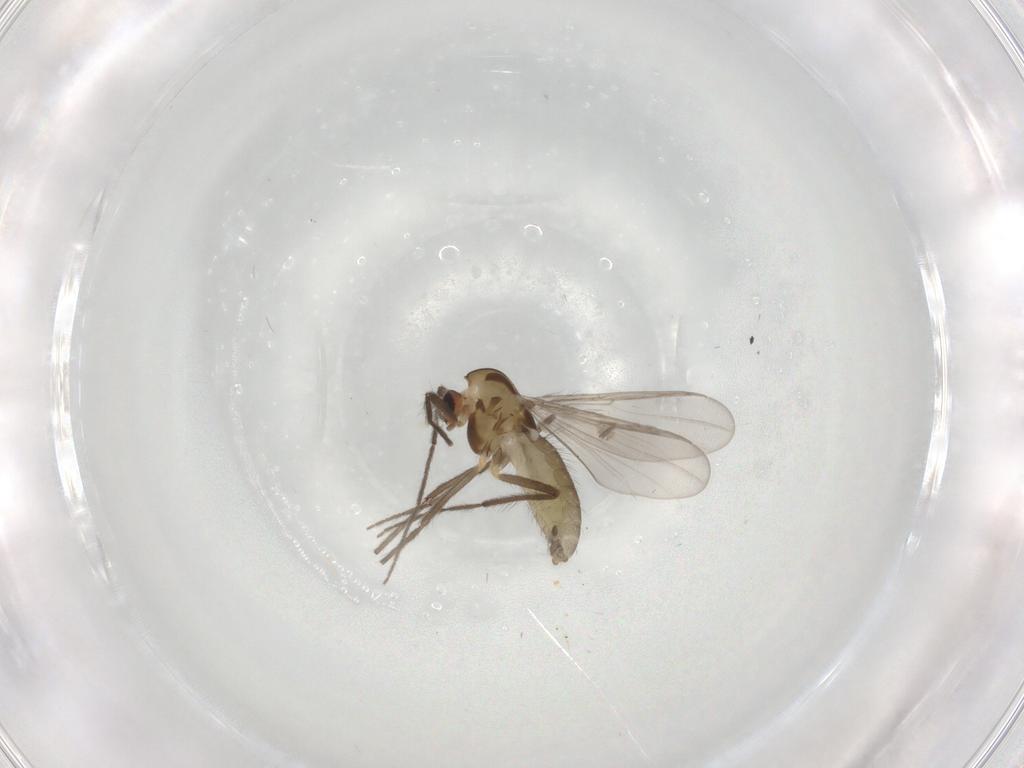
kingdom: Animalia
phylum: Arthropoda
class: Insecta
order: Diptera
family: Chironomidae
